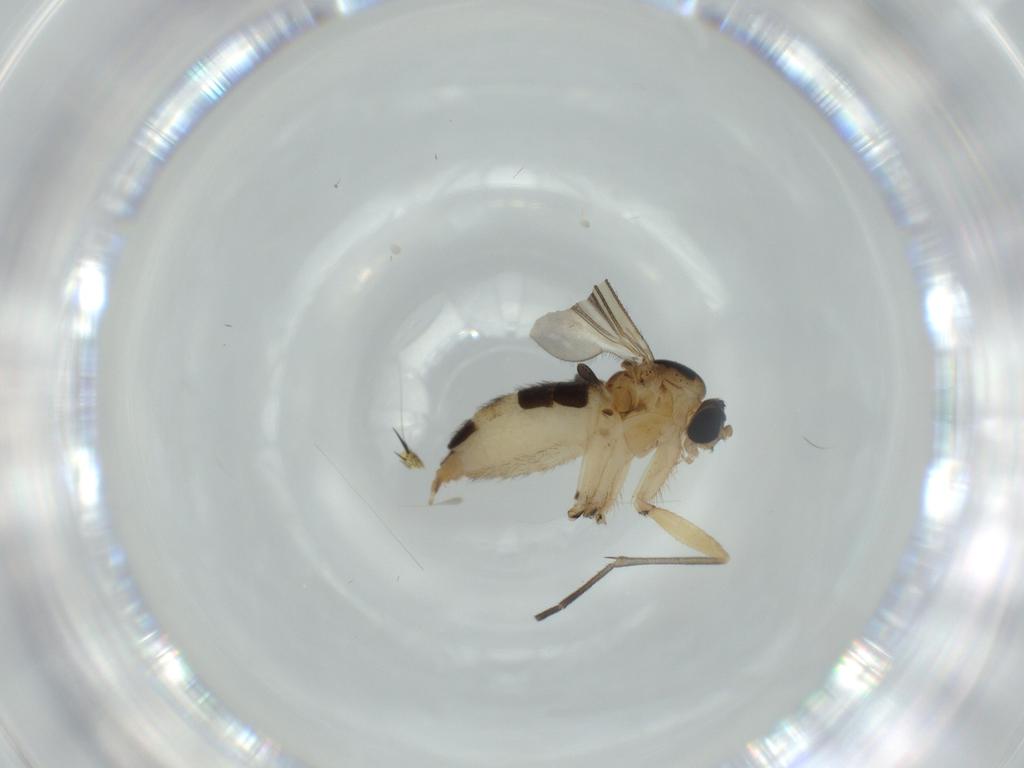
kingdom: Animalia
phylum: Arthropoda
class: Insecta
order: Diptera
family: Sciaridae
